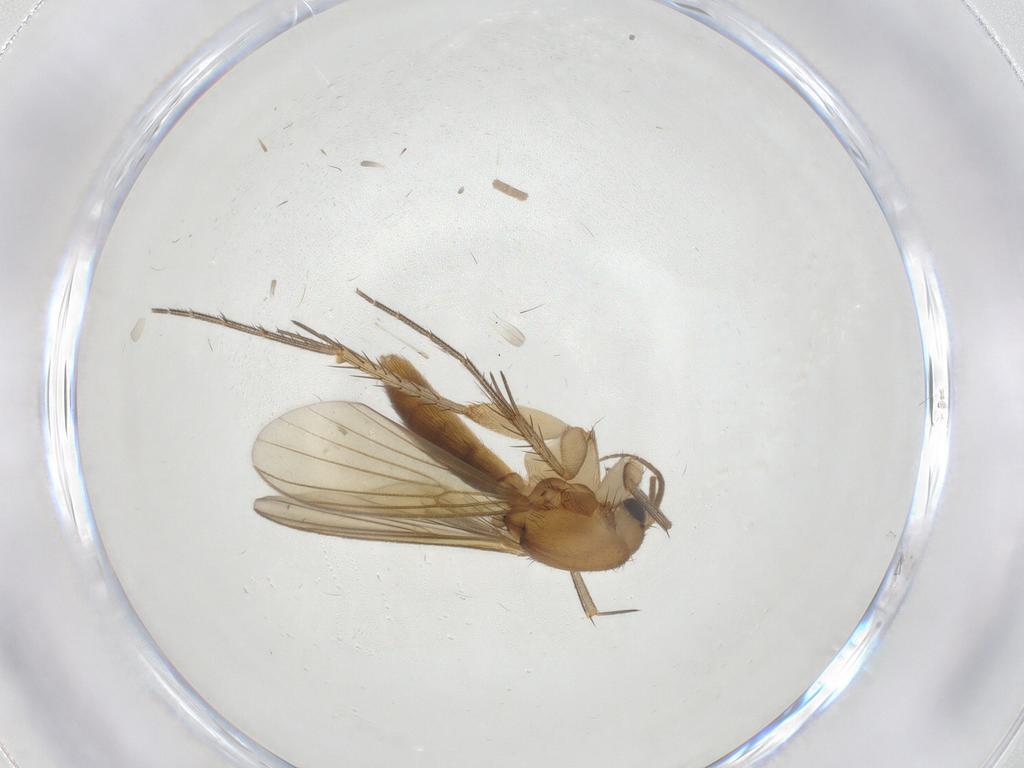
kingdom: Animalia
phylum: Arthropoda
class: Insecta
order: Diptera
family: Mycetophilidae
